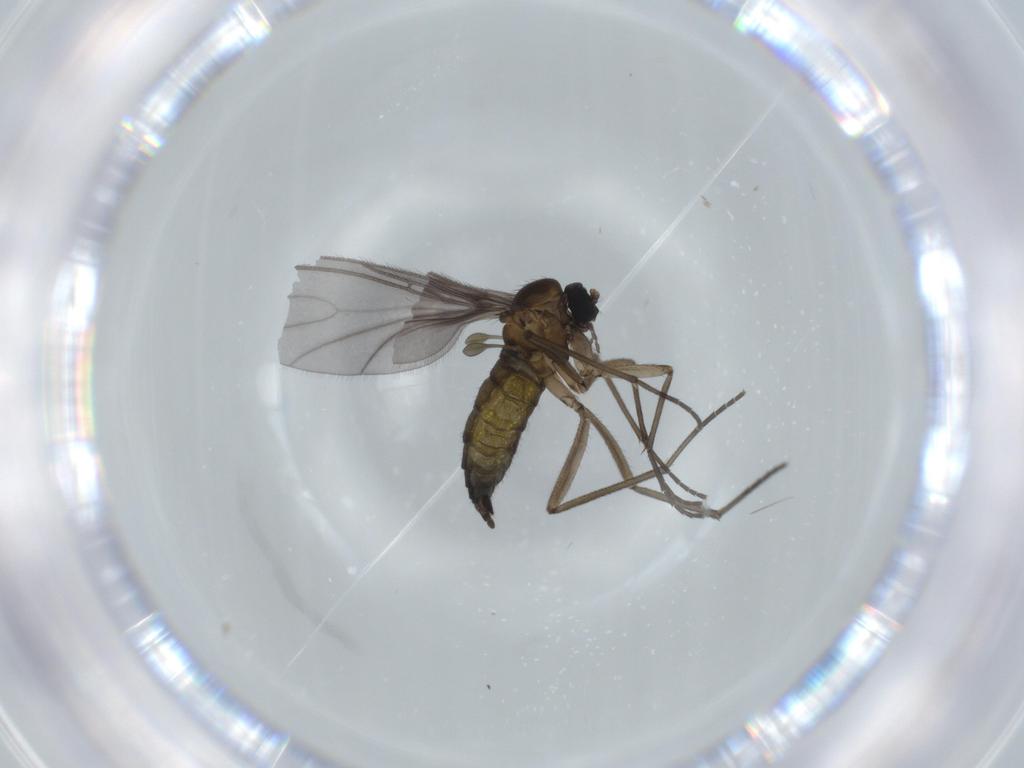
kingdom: Animalia
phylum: Arthropoda
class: Insecta
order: Diptera
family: Sciaridae
